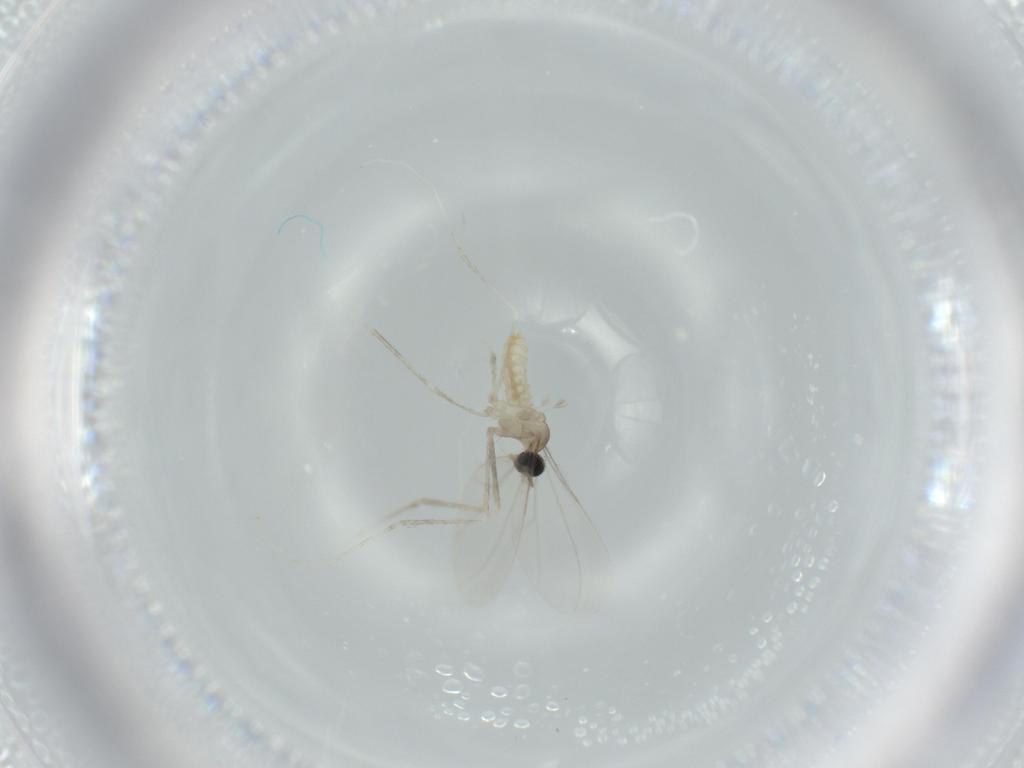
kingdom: Animalia
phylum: Arthropoda
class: Insecta
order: Diptera
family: Cecidomyiidae
